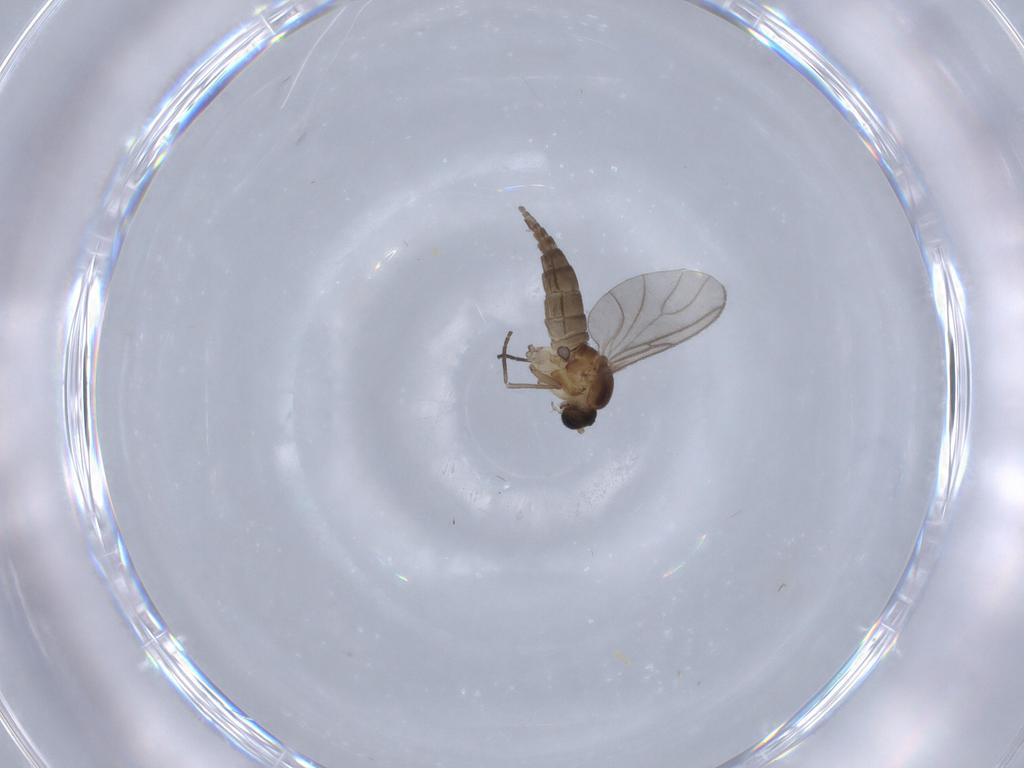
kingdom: Animalia
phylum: Arthropoda
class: Insecta
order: Diptera
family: Sciaridae
